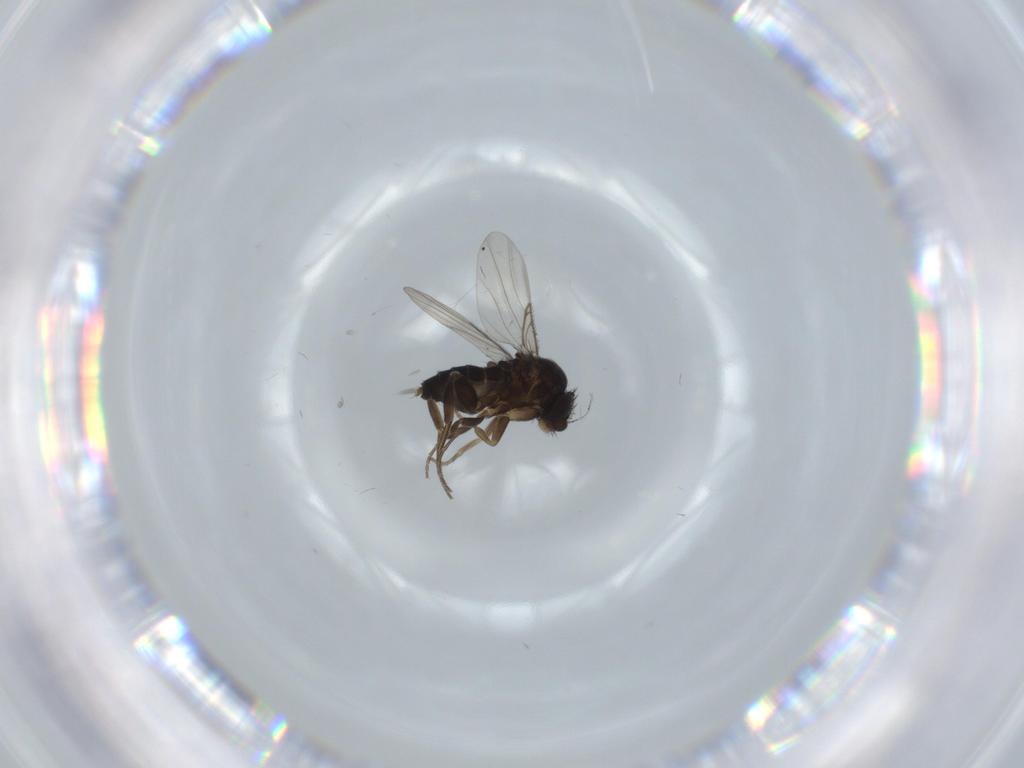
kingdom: Animalia
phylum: Arthropoda
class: Insecta
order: Diptera
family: Phoridae
